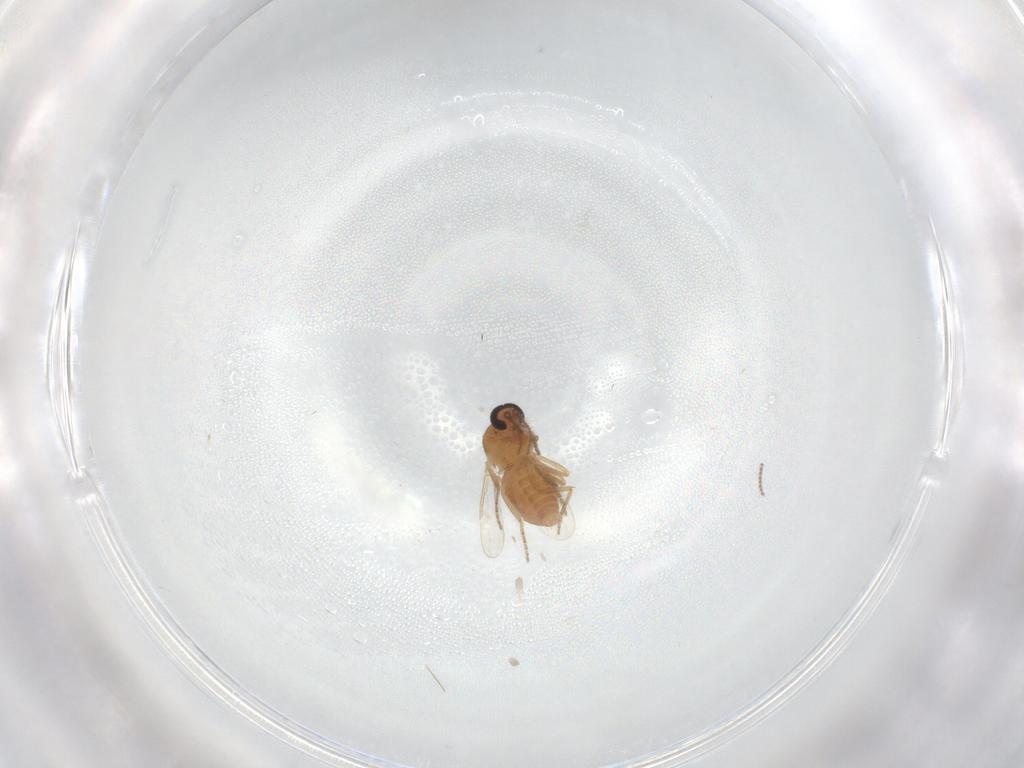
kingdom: Animalia
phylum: Arthropoda
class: Insecta
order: Diptera
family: Ceratopogonidae
